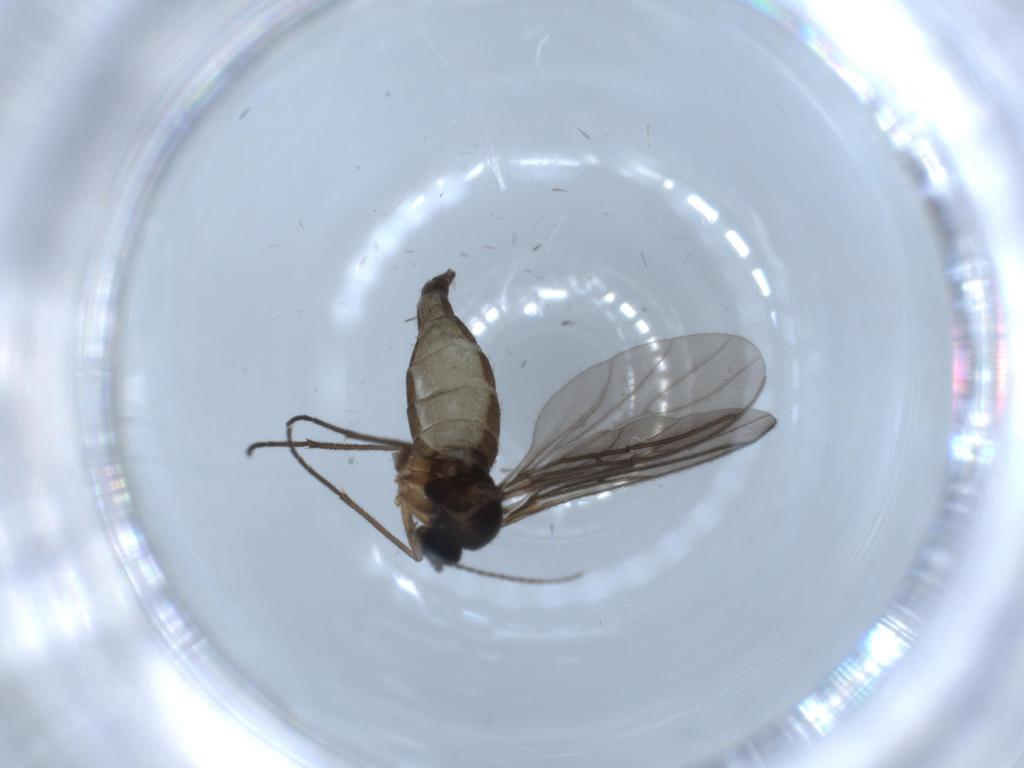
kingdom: Animalia
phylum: Arthropoda
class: Insecta
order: Diptera
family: Sciaridae
